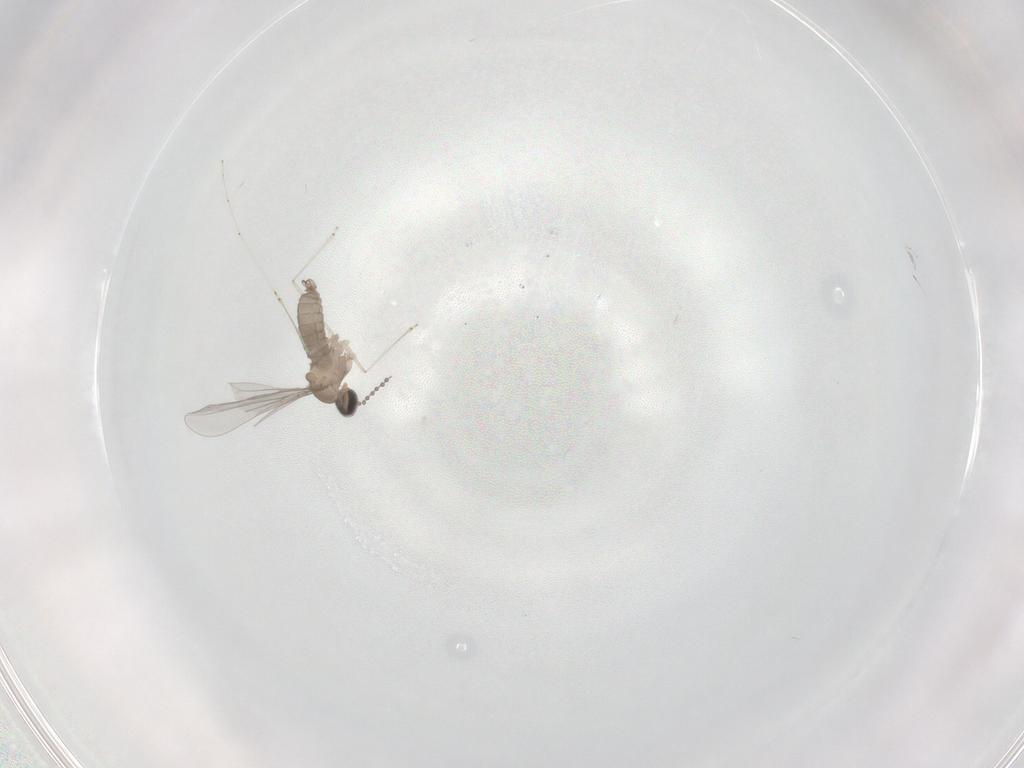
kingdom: Animalia
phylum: Arthropoda
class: Insecta
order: Diptera
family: Cecidomyiidae
